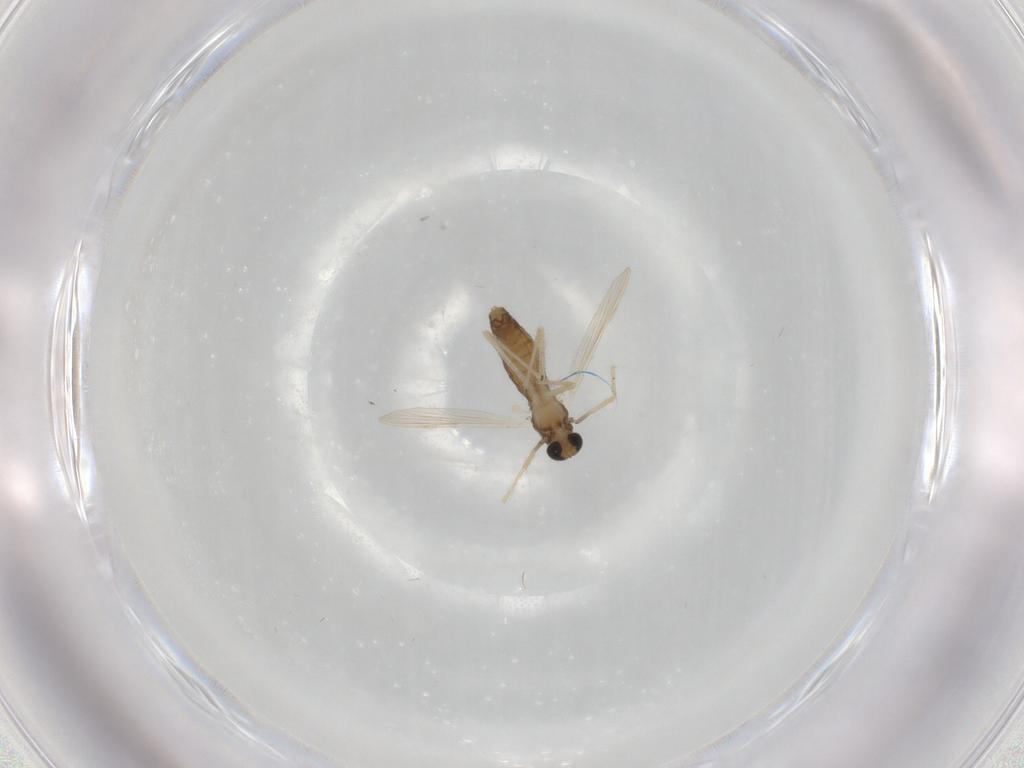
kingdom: Animalia
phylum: Arthropoda
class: Insecta
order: Diptera
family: Chironomidae
